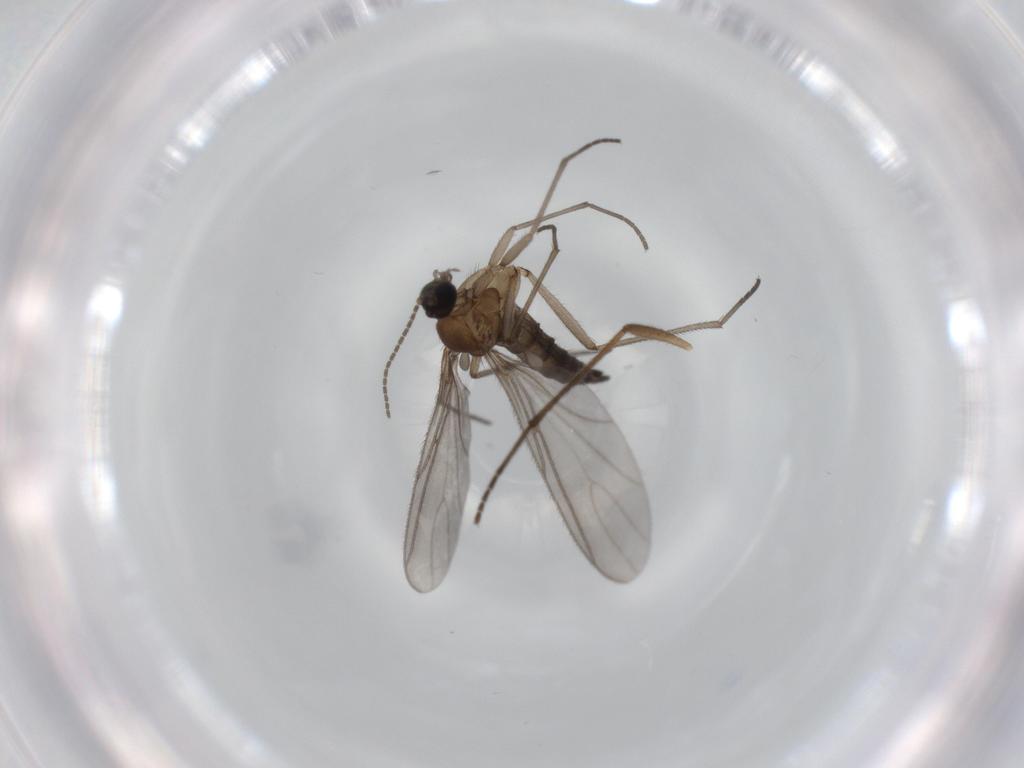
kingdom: Animalia
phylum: Arthropoda
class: Insecta
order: Diptera
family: Sciaridae
